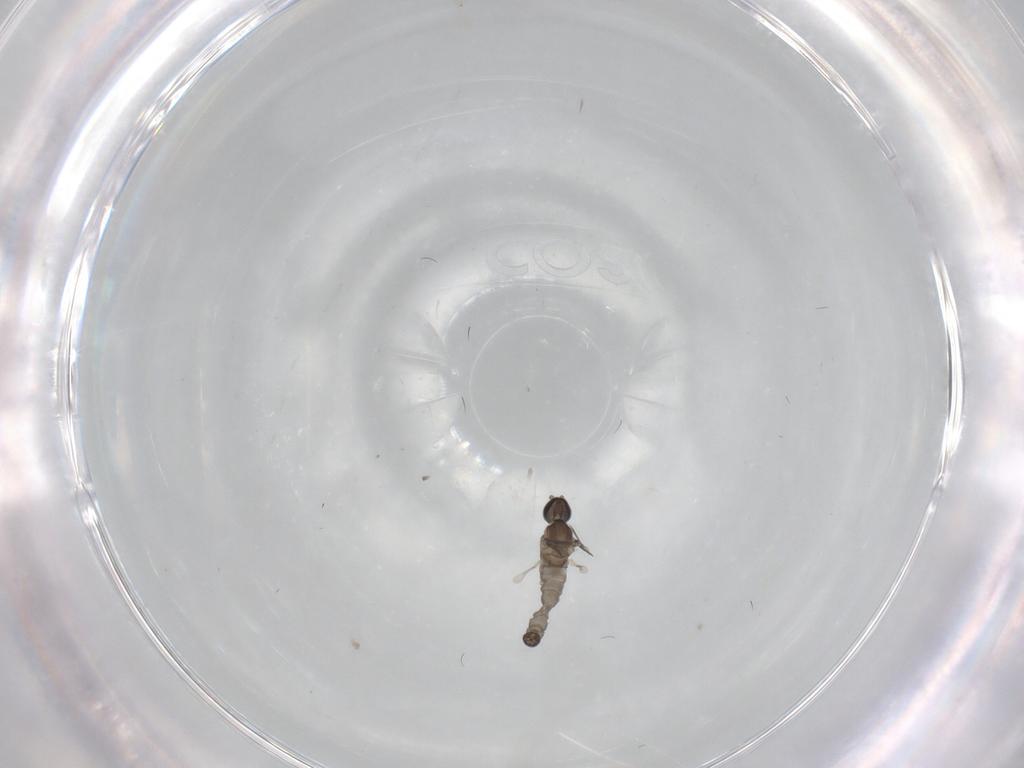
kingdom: Animalia
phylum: Arthropoda
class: Insecta
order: Diptera
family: Cecidomyiidae
